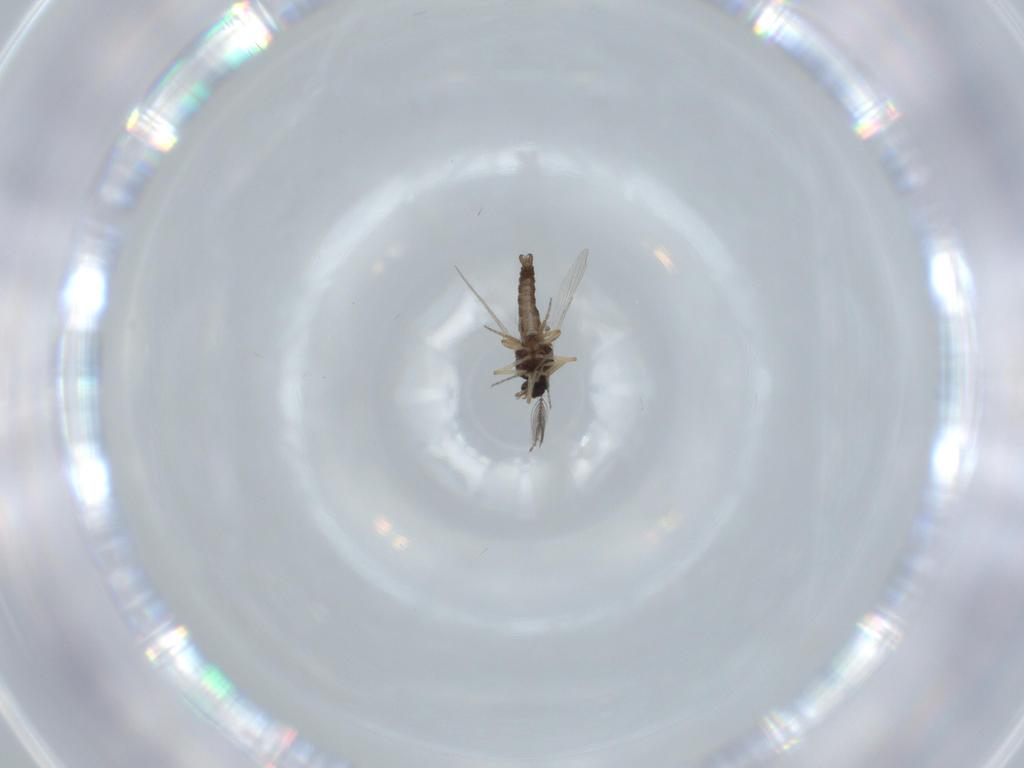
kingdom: Animalia
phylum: Arthropoda
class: Insecta
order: Diptera
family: Ceratopogonidae
